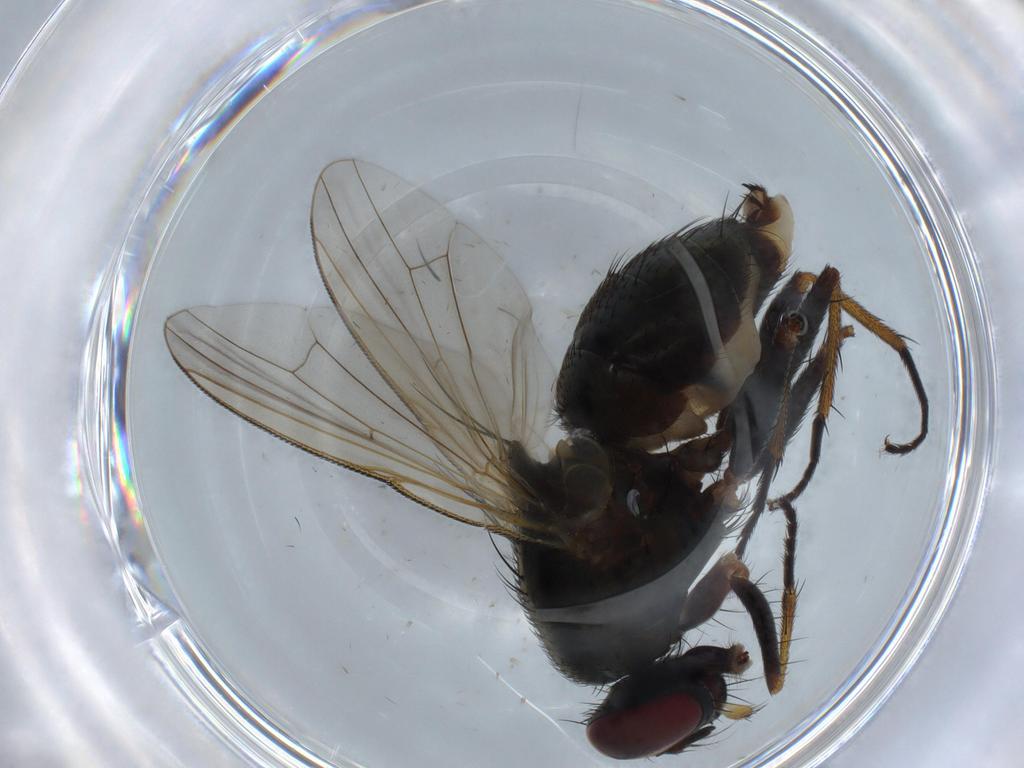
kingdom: Animalia
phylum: Arthropoda
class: Insecta
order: Diptera
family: Muscidae
